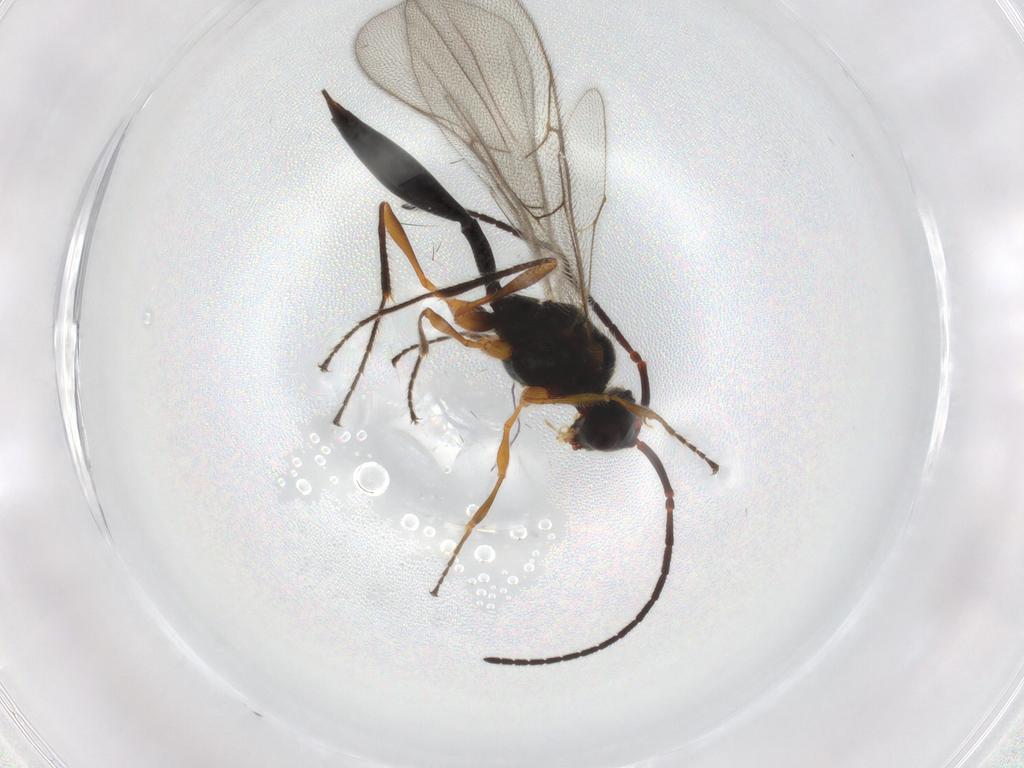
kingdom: Animalia
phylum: Arthropoda
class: Insecta
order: Hymenoptera
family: Diapriidae
